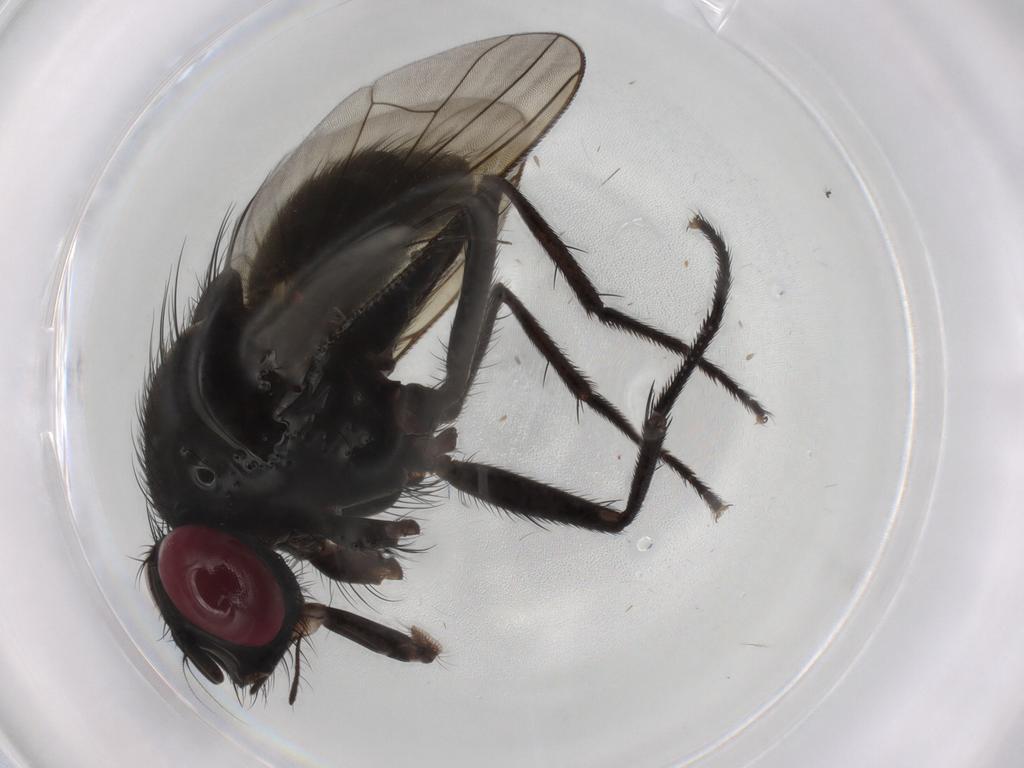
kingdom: Animalia
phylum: Arthropoda
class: Insecta
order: Diptera
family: Muscidae
